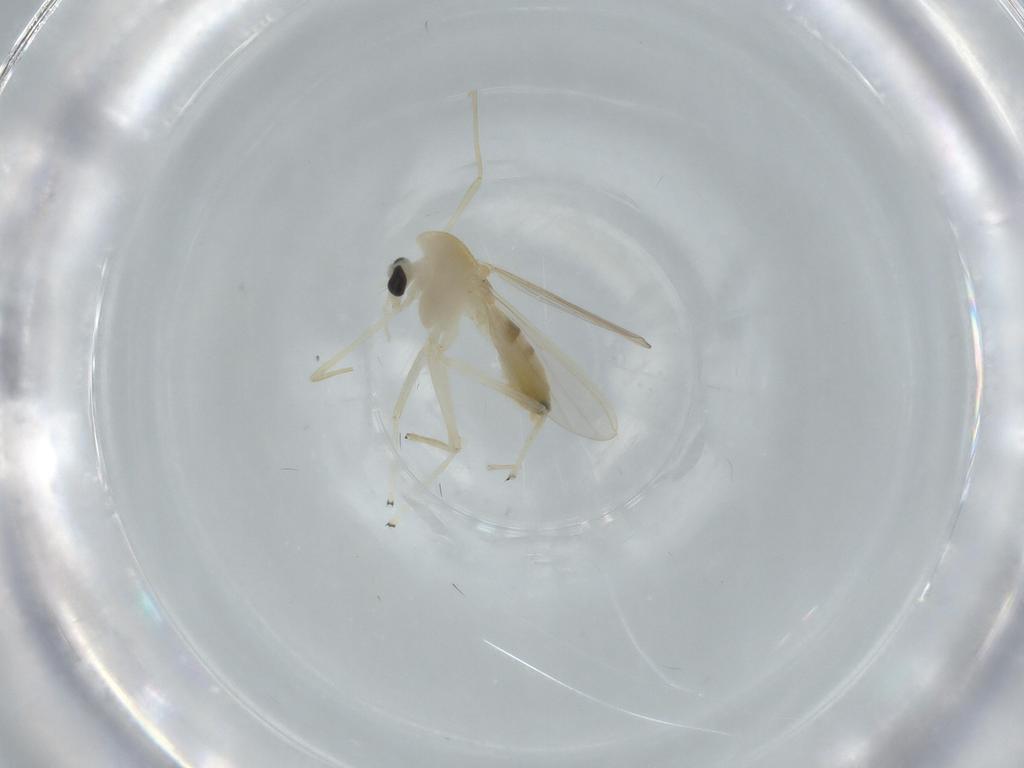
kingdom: Animalia
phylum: Arthropoda
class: Insecta
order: Diptera
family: Chironomidae
